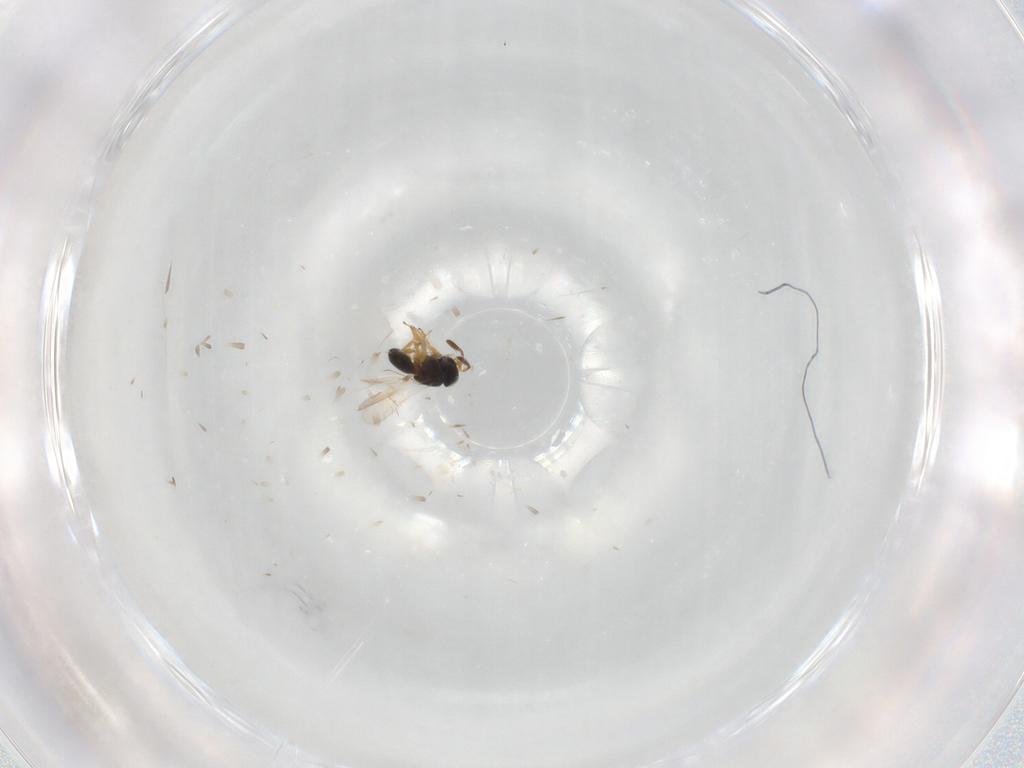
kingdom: Animalia
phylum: Arthropoda
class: Insecta
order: Hymenoptera
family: Scelionidae
